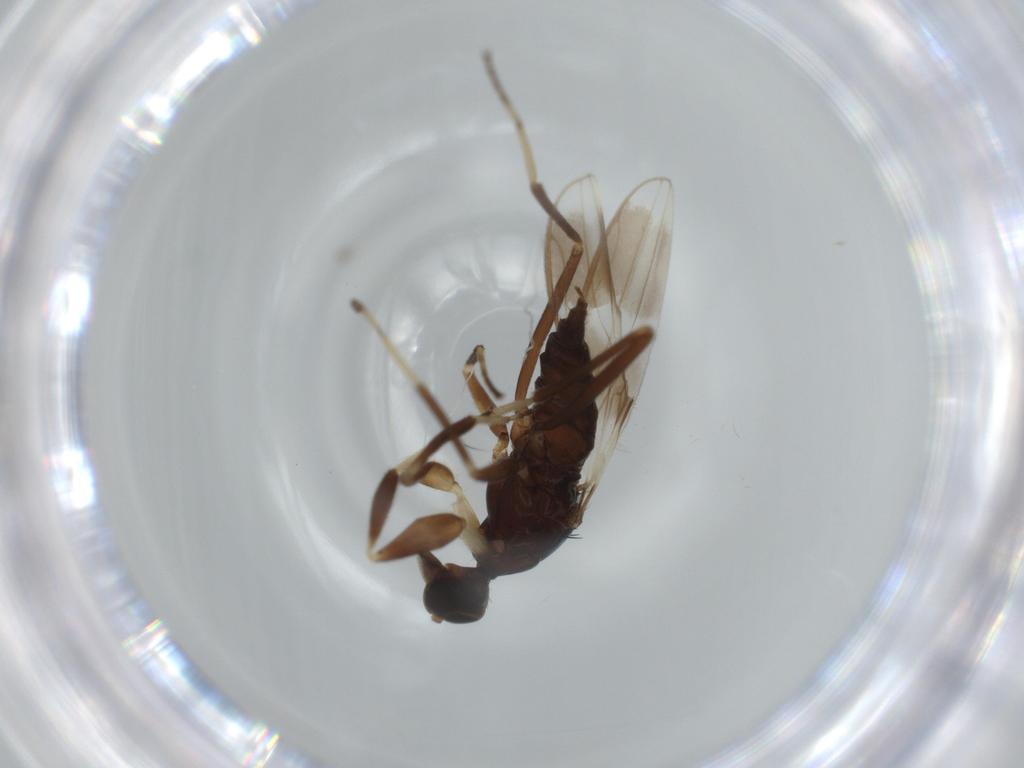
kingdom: Animalia
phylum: Arthropoda
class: Insecta
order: Diptera
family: Hybotidae
